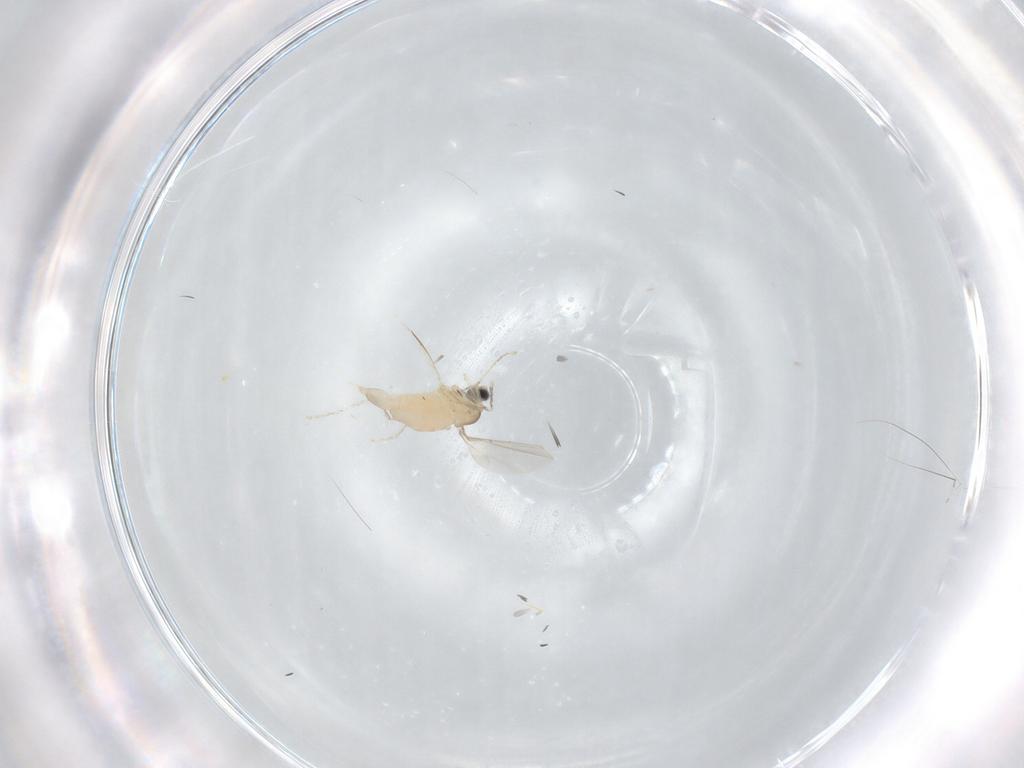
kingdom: Animalia
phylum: Arthropoda
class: Insecta
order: Diptera
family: Cecidomyiidae
